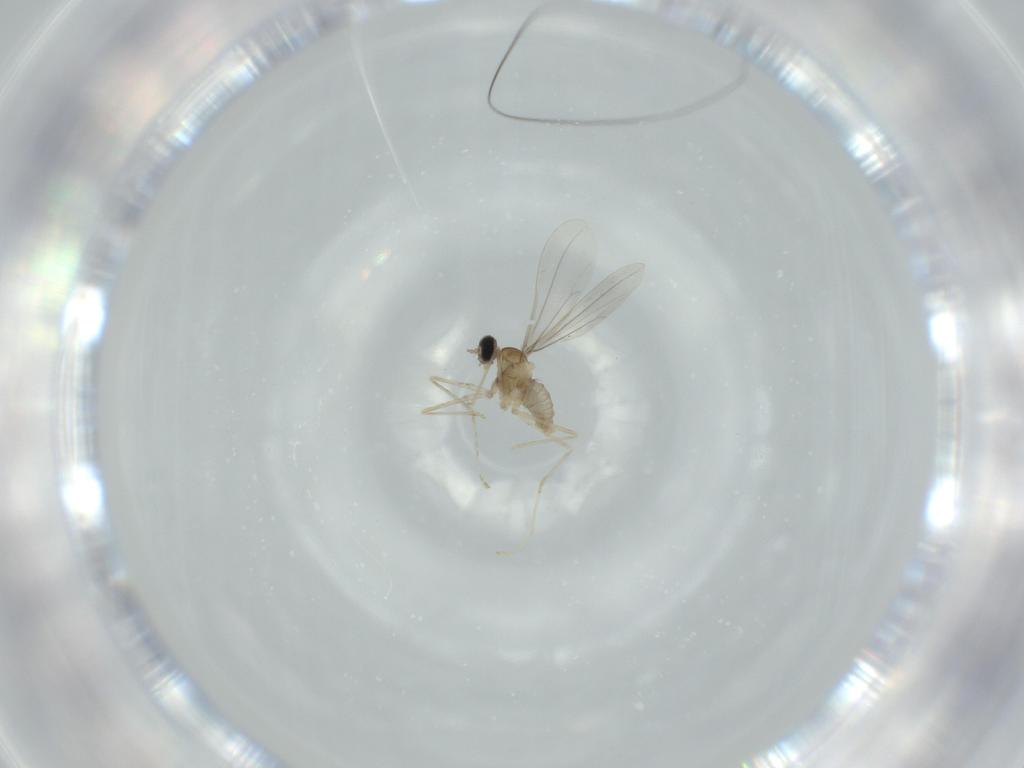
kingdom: Animalia
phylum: Arthropoda
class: Insecta
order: Diptera
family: Cecidomyiidae
